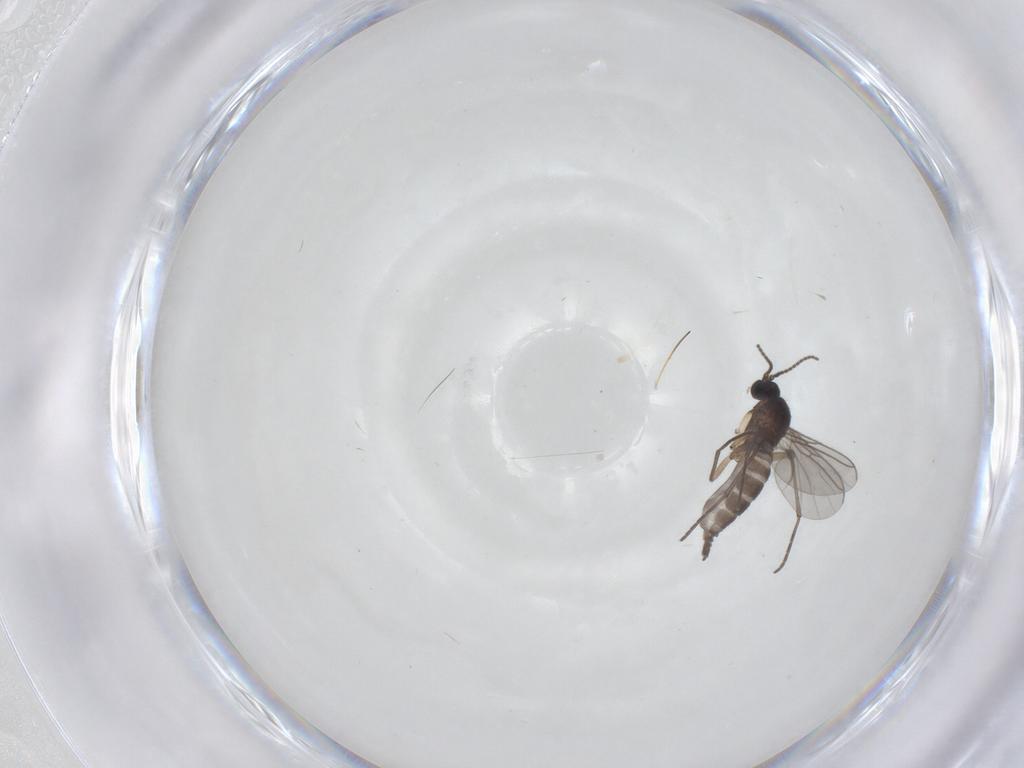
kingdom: Animalia
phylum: Arthropoda
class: Insecta
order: Diptera
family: Sciaridae
